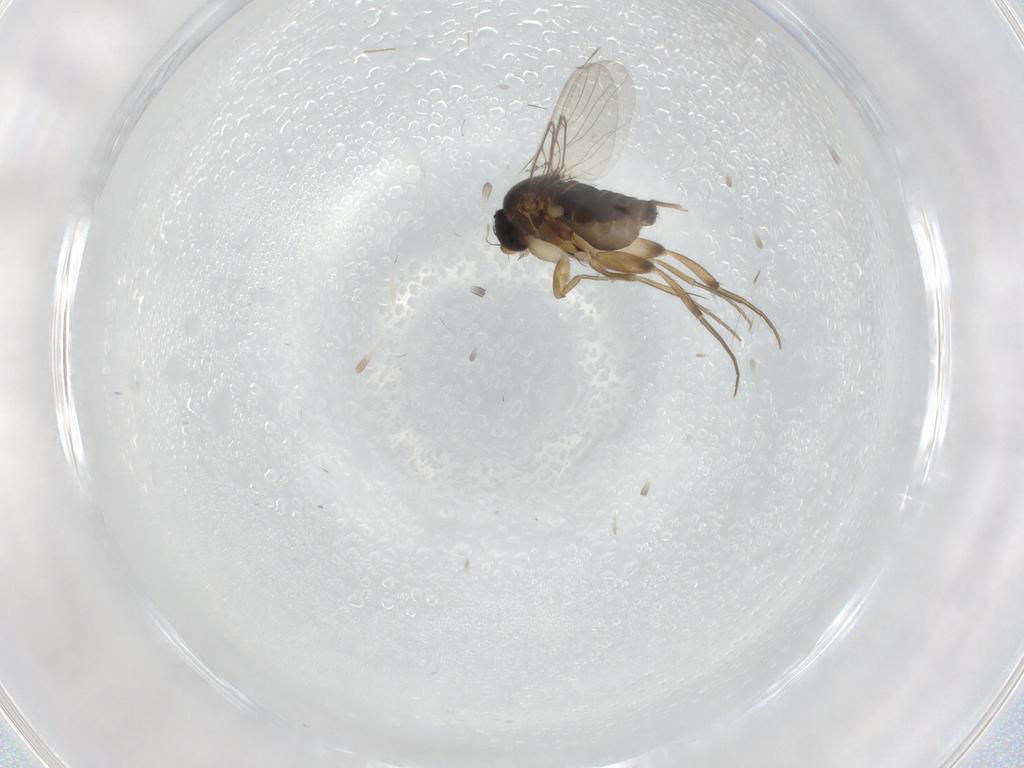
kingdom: Animalia
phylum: Arthropoda
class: Insecta
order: Diptera
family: Phoridae
